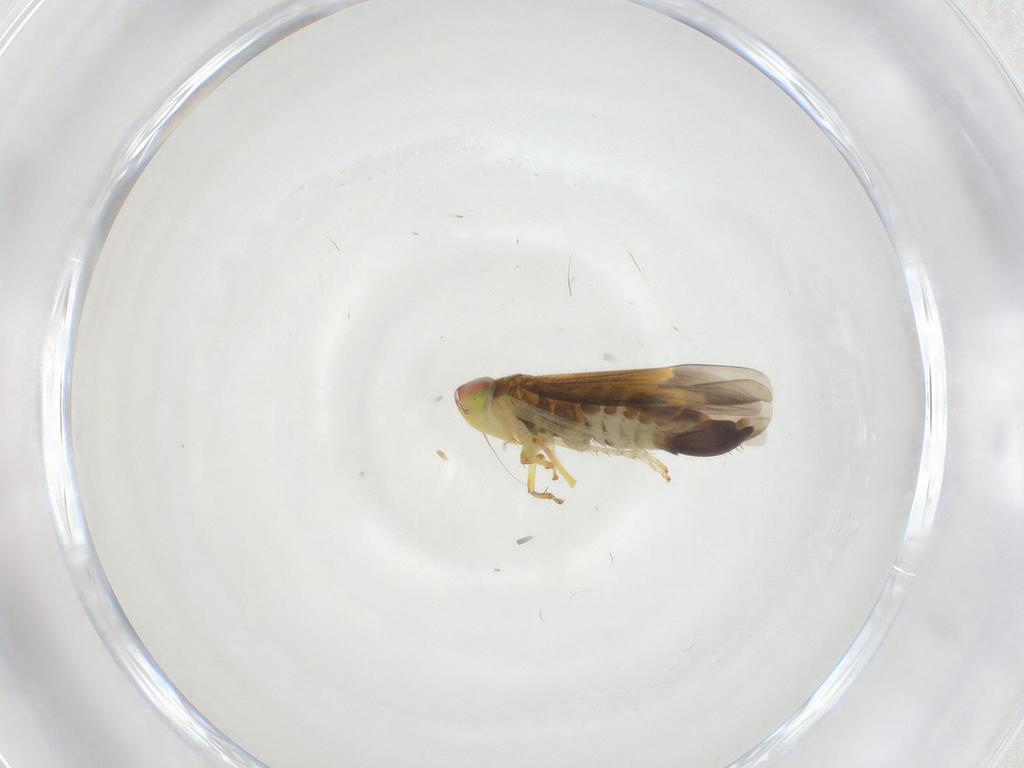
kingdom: Animalia
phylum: Arthropoda
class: Insecta
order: Hemiptera
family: Cicadellidae
